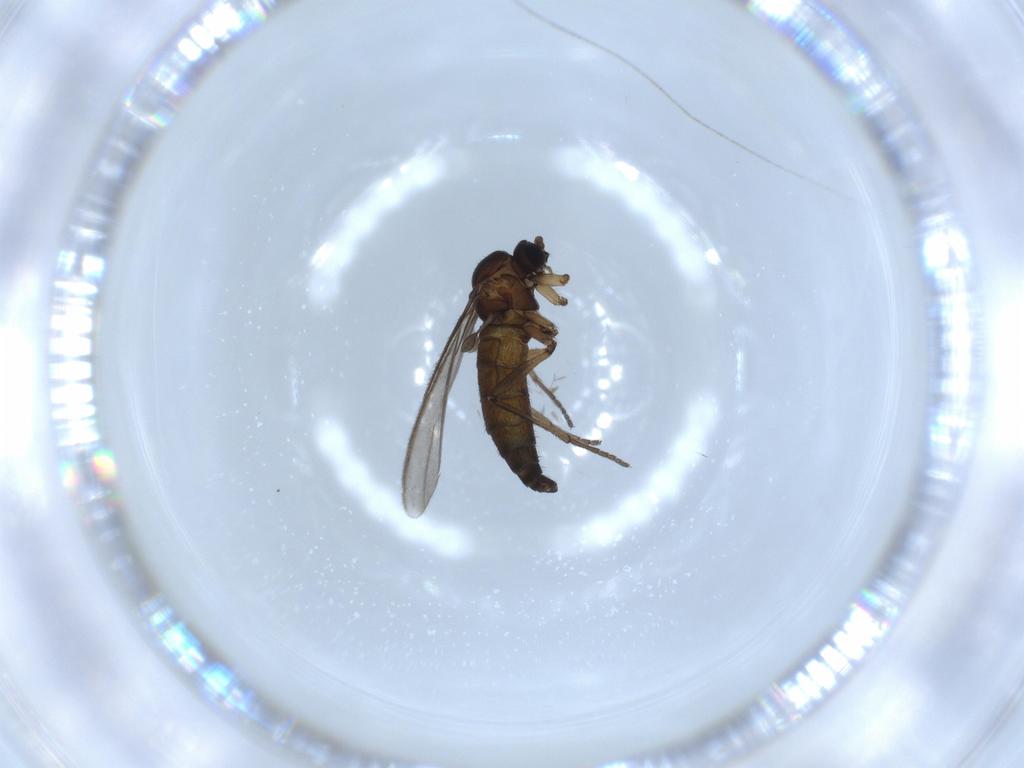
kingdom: Animalia
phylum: Arthropoda
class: Insecta
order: Diptera
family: Sciaridae
